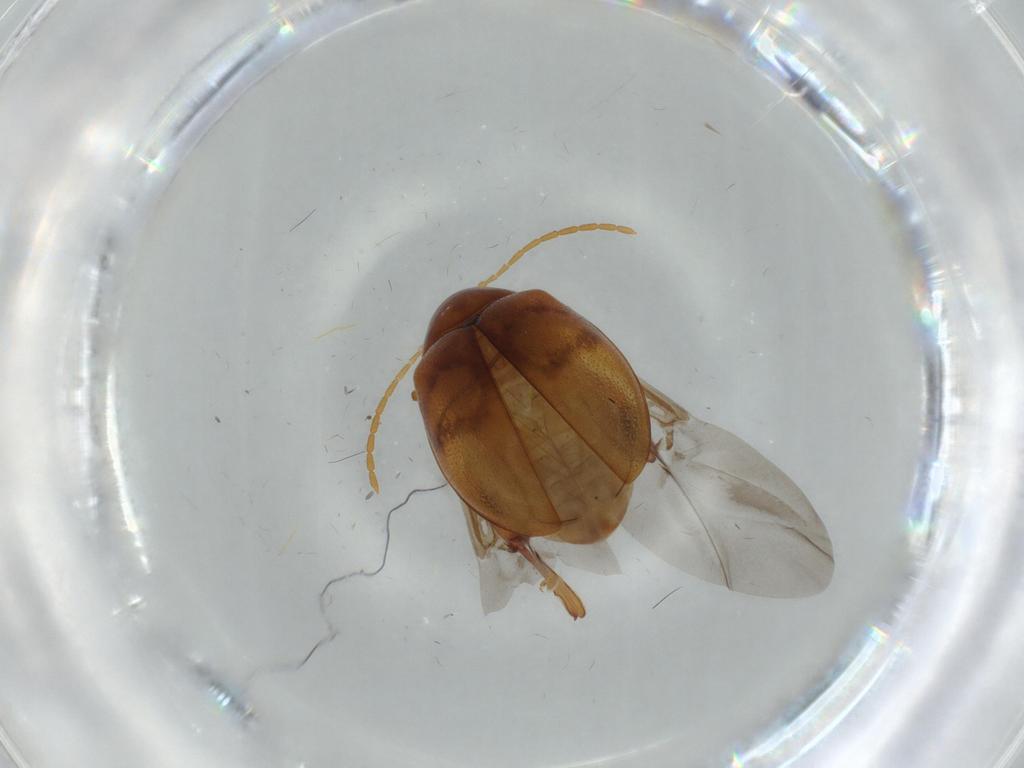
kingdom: Animalia
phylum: Arthropoda
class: Insecta
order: Coleoptera
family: Chrysomelidae
